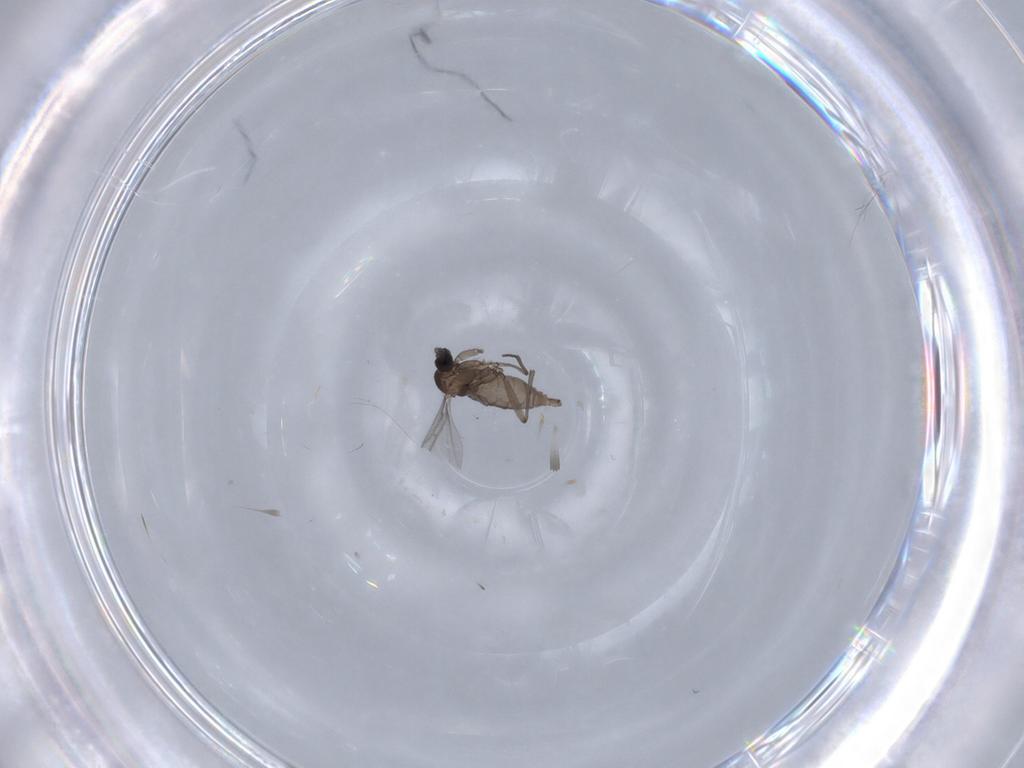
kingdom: Animalia
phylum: Arthropoda
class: Insecta
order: Diptera
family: Sciaridae
